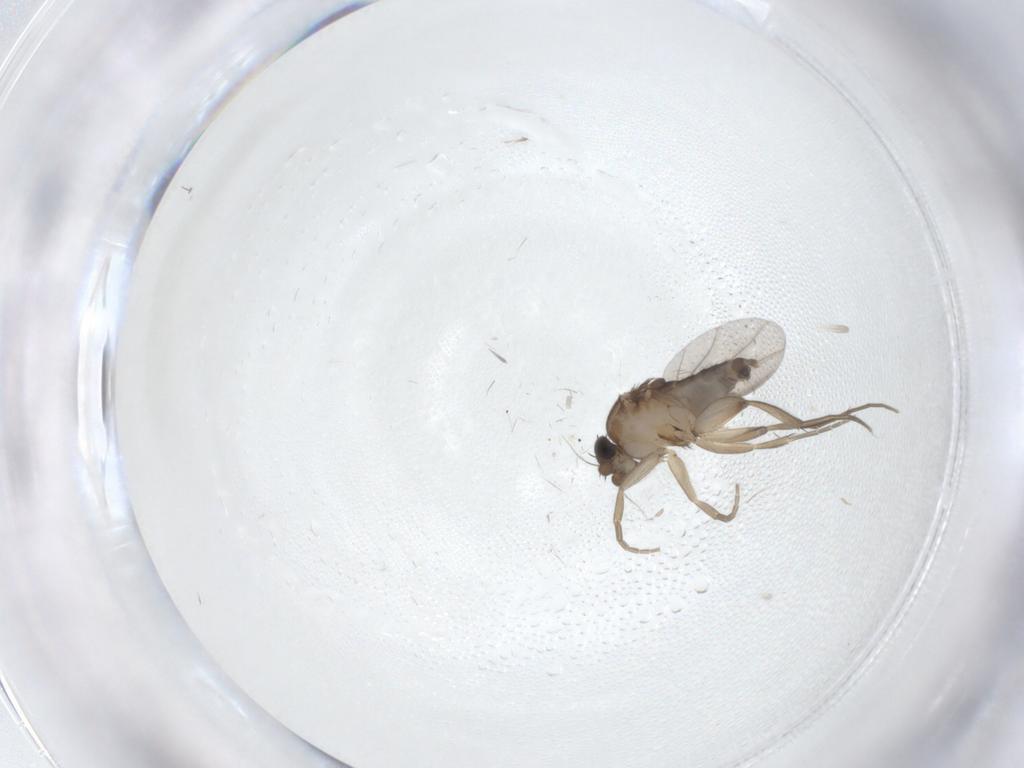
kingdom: Animalia
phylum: Arthropoda
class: Insecta
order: Diptera
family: Phoridae
